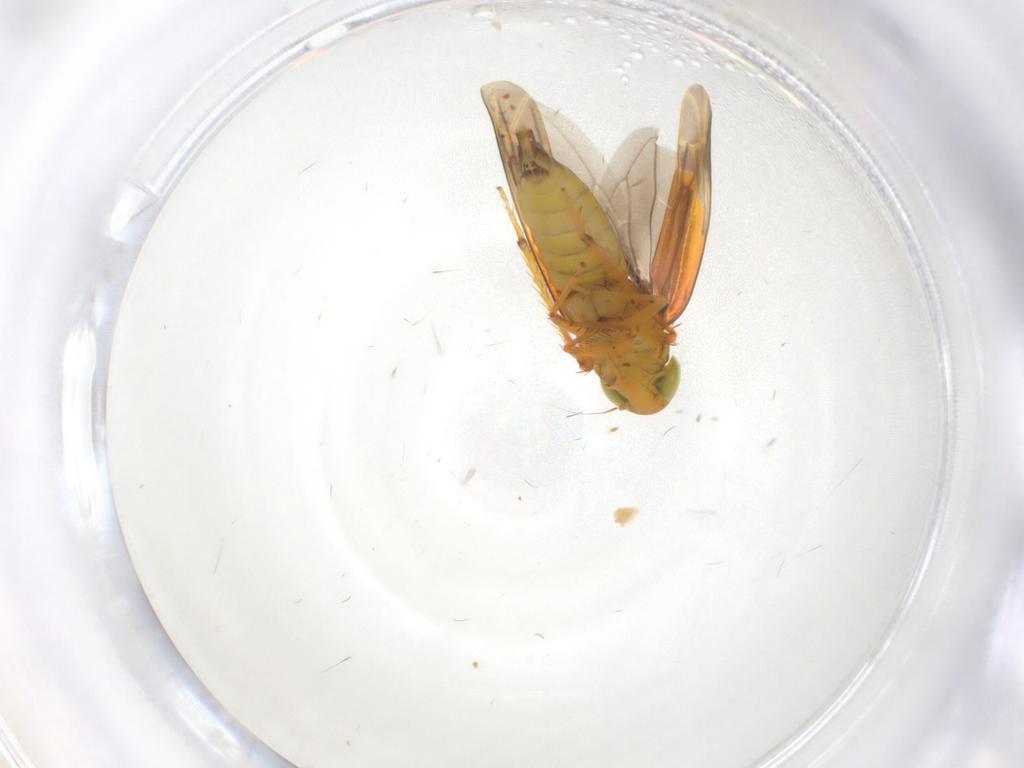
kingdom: Animalia
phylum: Arthropoda
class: Insecta
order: Hemiptera
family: Cicadellidae
